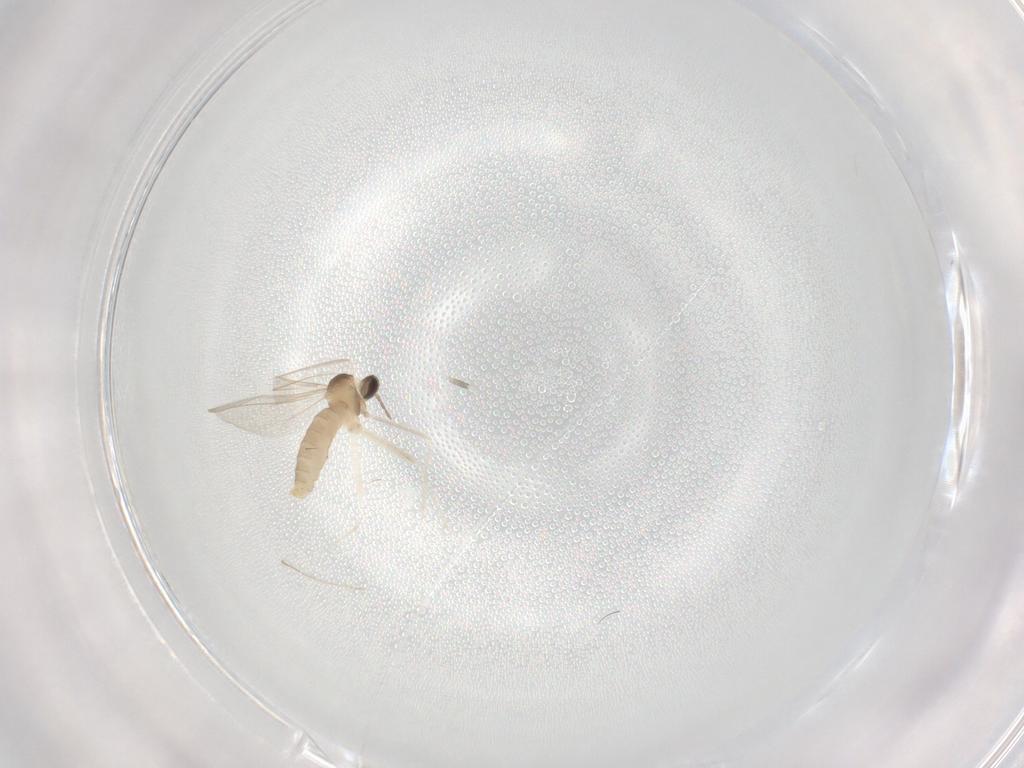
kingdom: Animalia
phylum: Arthropoda
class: Insecta
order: Diptera
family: Cecidomyiidae
